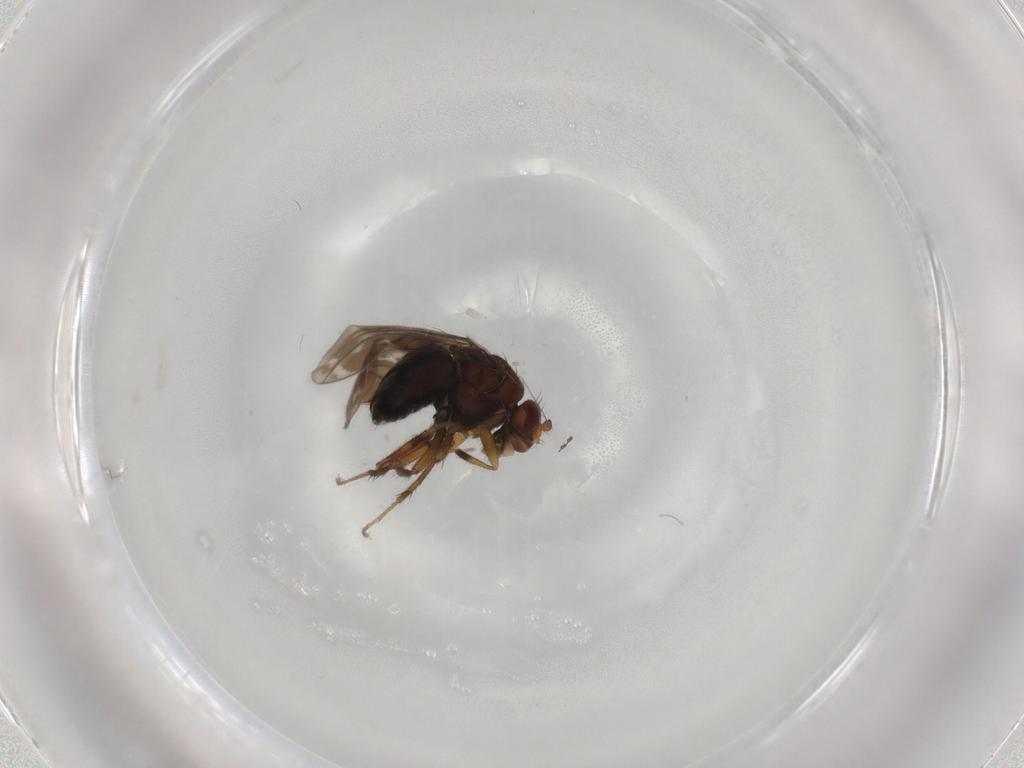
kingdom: Animalia
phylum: Arthropoda
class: Insecta
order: Diptera
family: Sphaeroceridae
